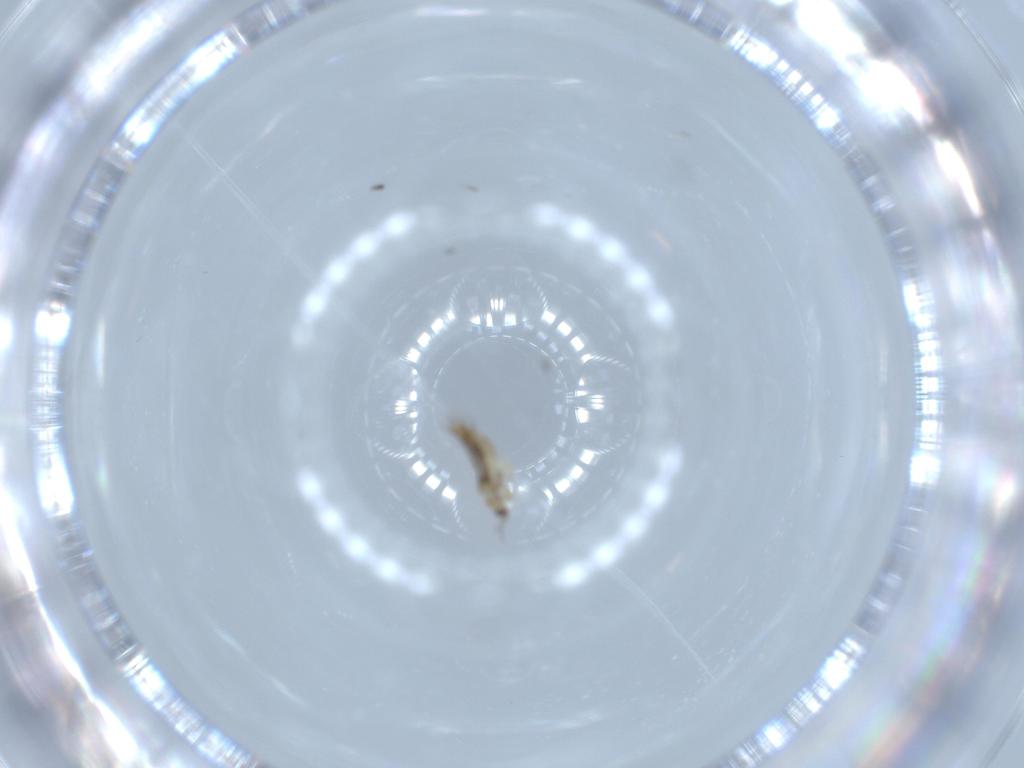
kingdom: Animalia
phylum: Arthropoda
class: Insecta
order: Thysanoptera
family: Thripidae
